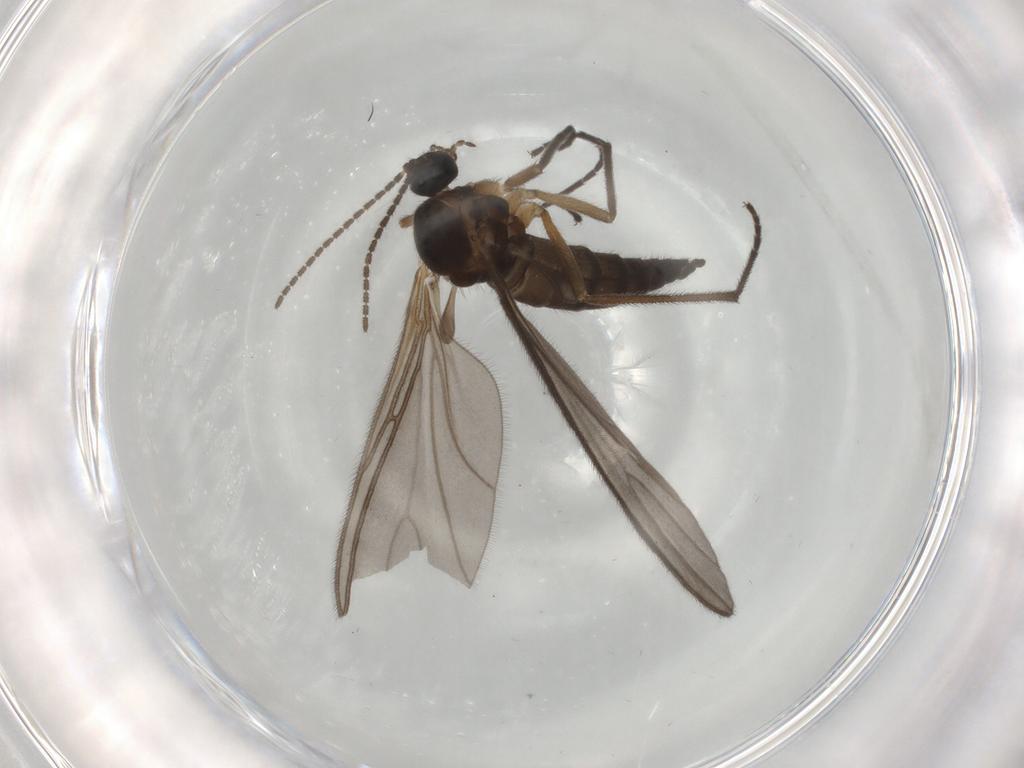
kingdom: Animalia
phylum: Arthropoda
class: Insecta
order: Diptera
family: Sciaridae
